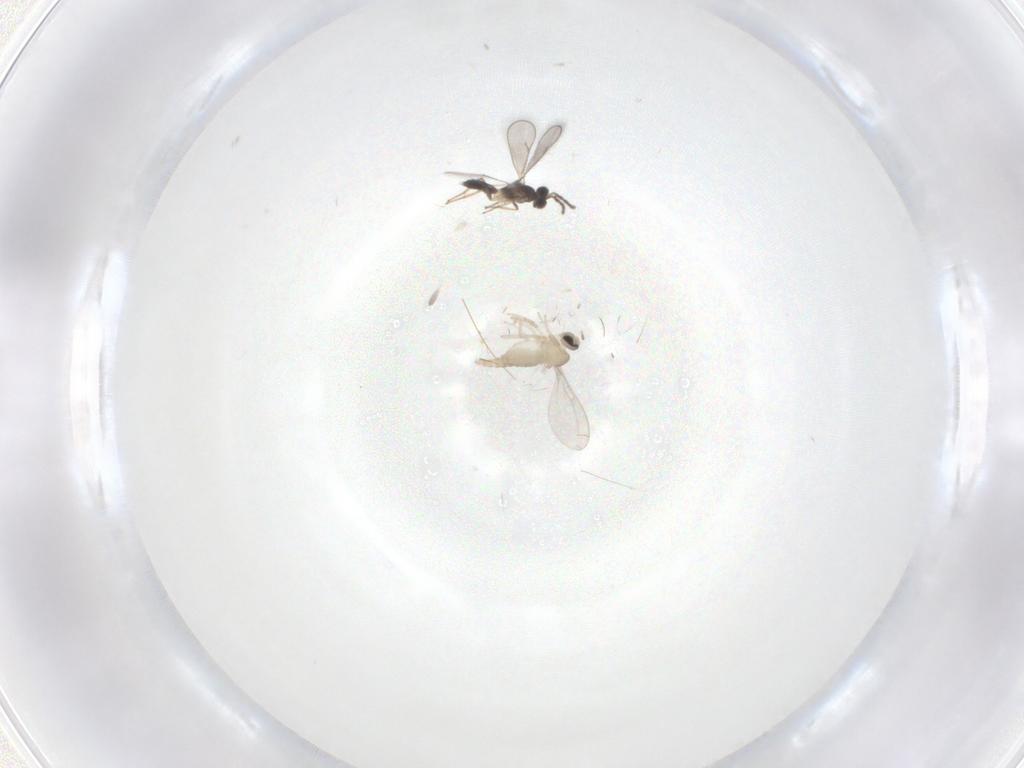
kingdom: Animalia
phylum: Arthropoda
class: Insecta
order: Diptera
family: Cecidomyiidae
